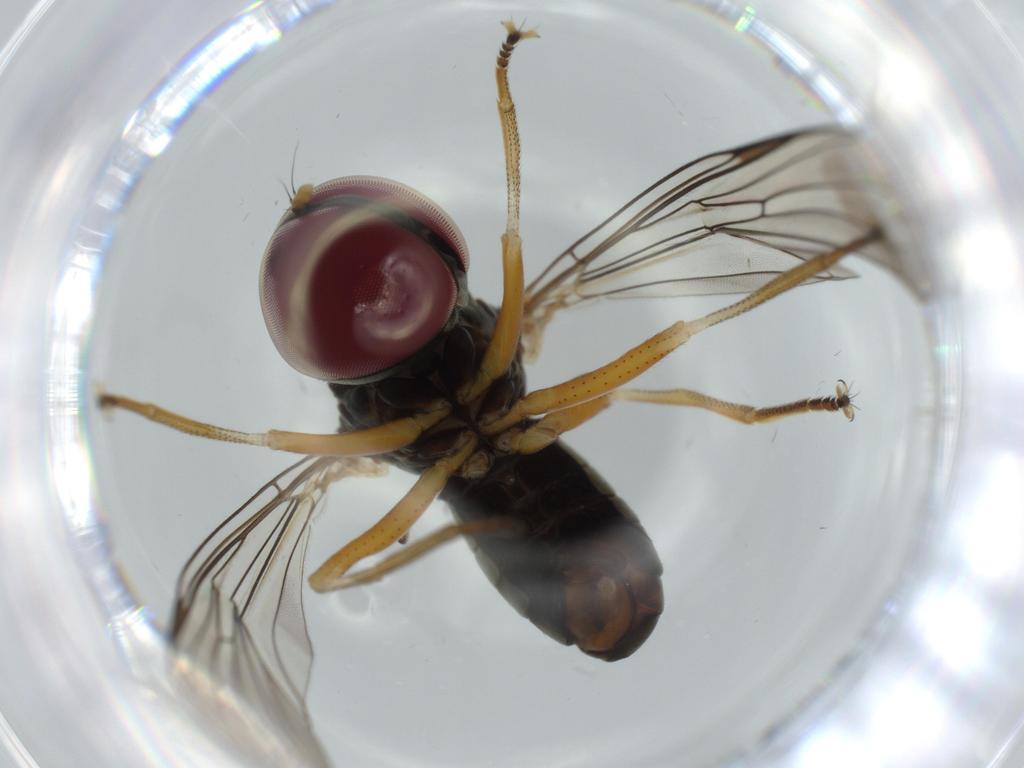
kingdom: Animalia
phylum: Arthropoda
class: Insecta
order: Diptera
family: Pipunculidae
